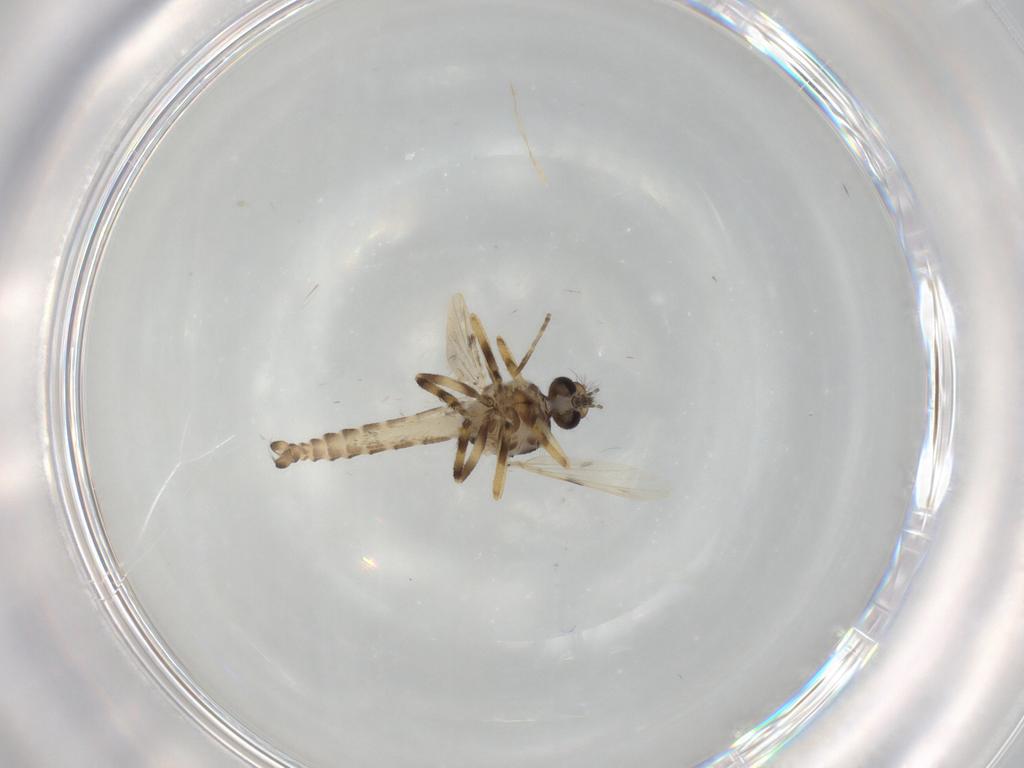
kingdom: Animalia
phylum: Arthropoda
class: Insecta
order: Diptera
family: Ceratopogonidae
